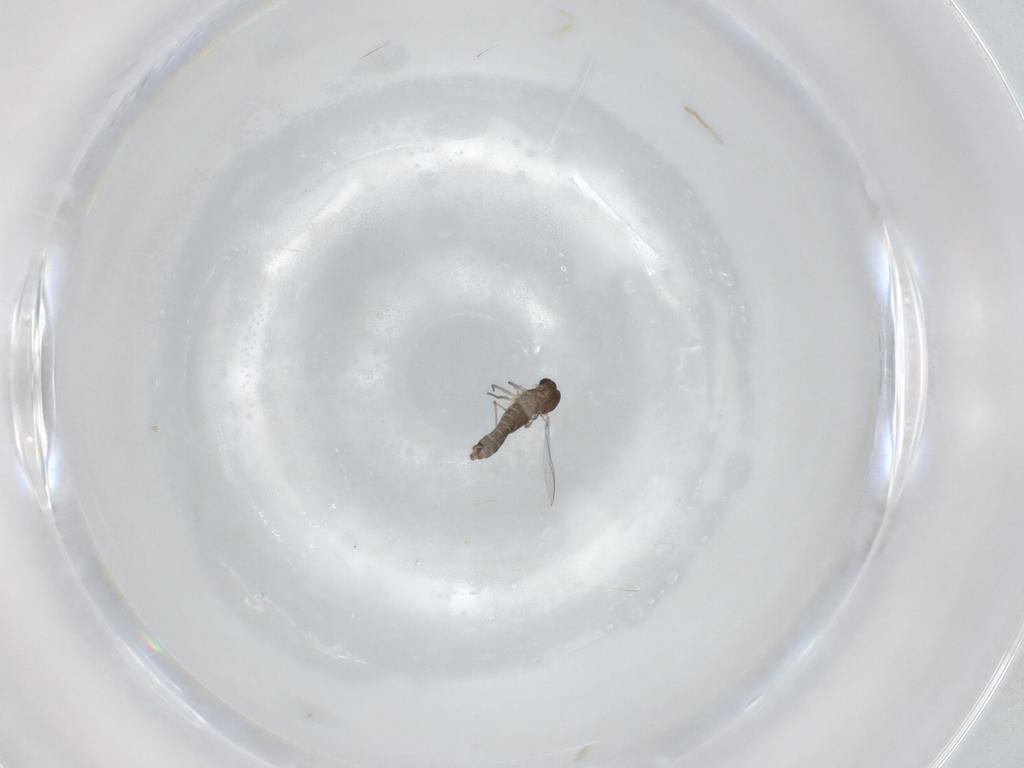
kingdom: Animalia
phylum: Arthropoda
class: Insecta
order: Diptera
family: Chironomidae
